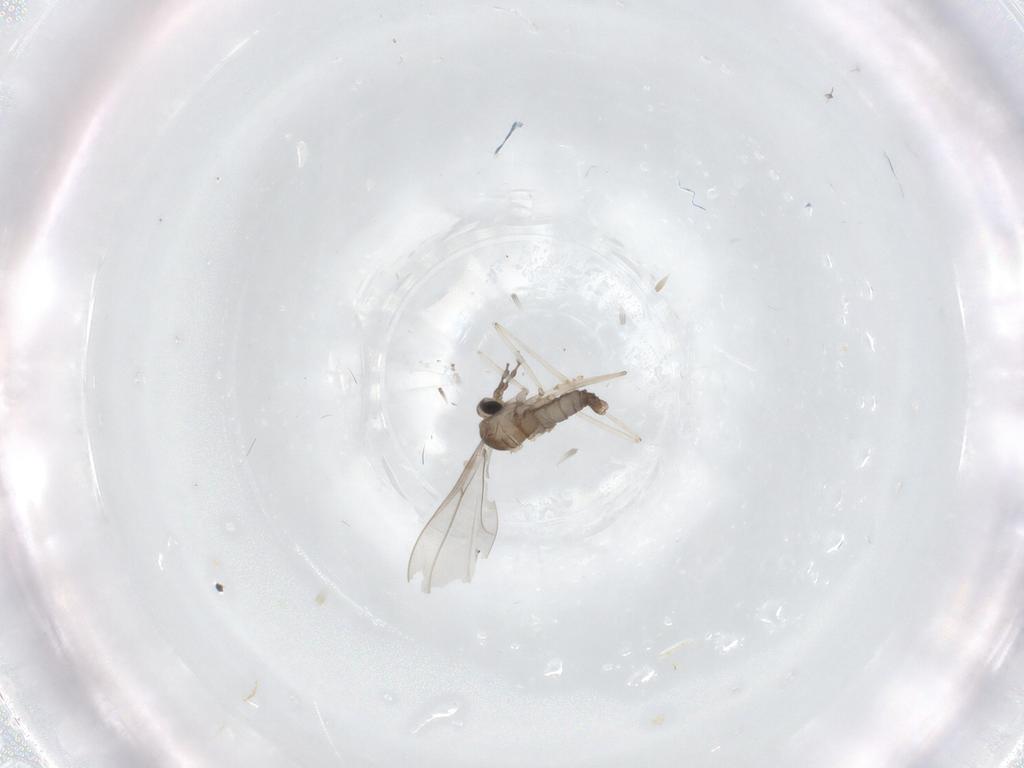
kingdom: Animalia
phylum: Arthropoda
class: Insecta
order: Diptera
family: Cecidomyiidae
